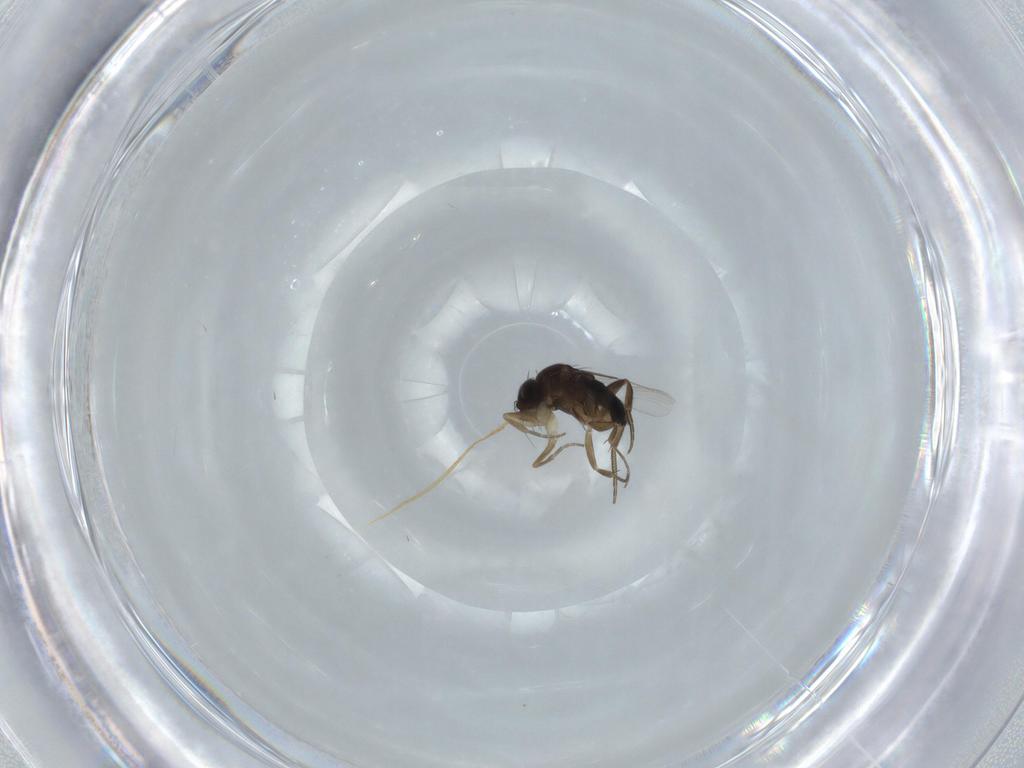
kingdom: Animalia
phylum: Arthropoda
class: Insecta
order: Diptera
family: Phoridae
